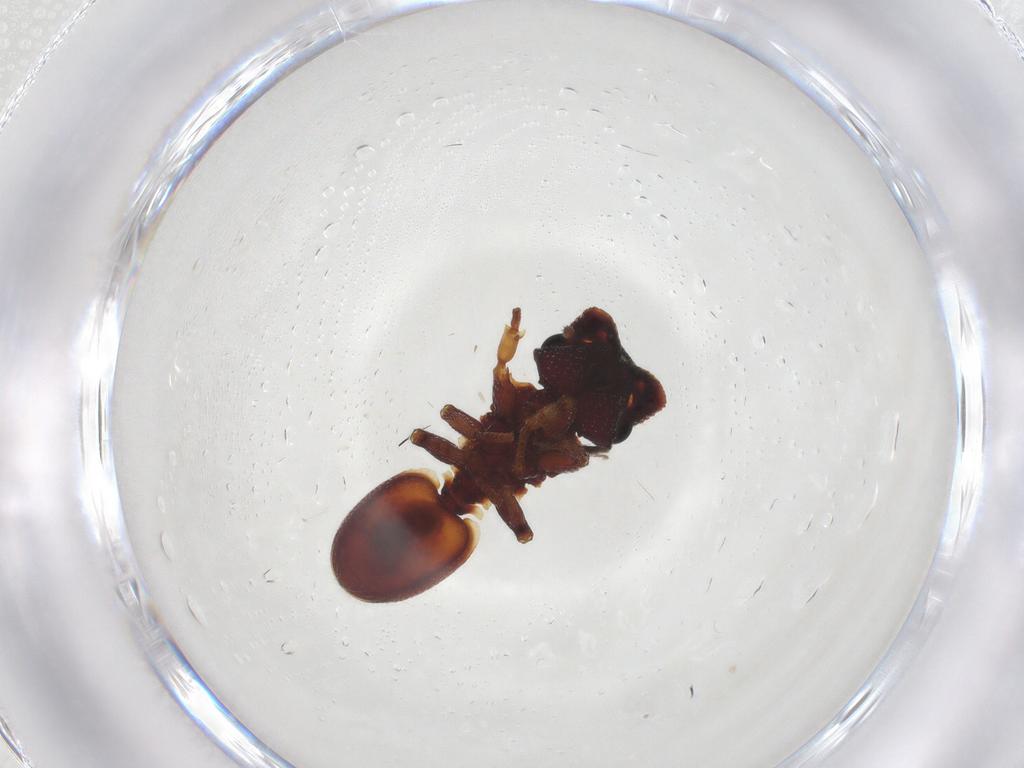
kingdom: Animalia
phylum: Arthropoda
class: Insecta
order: Hymenoptera
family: Formicidae
